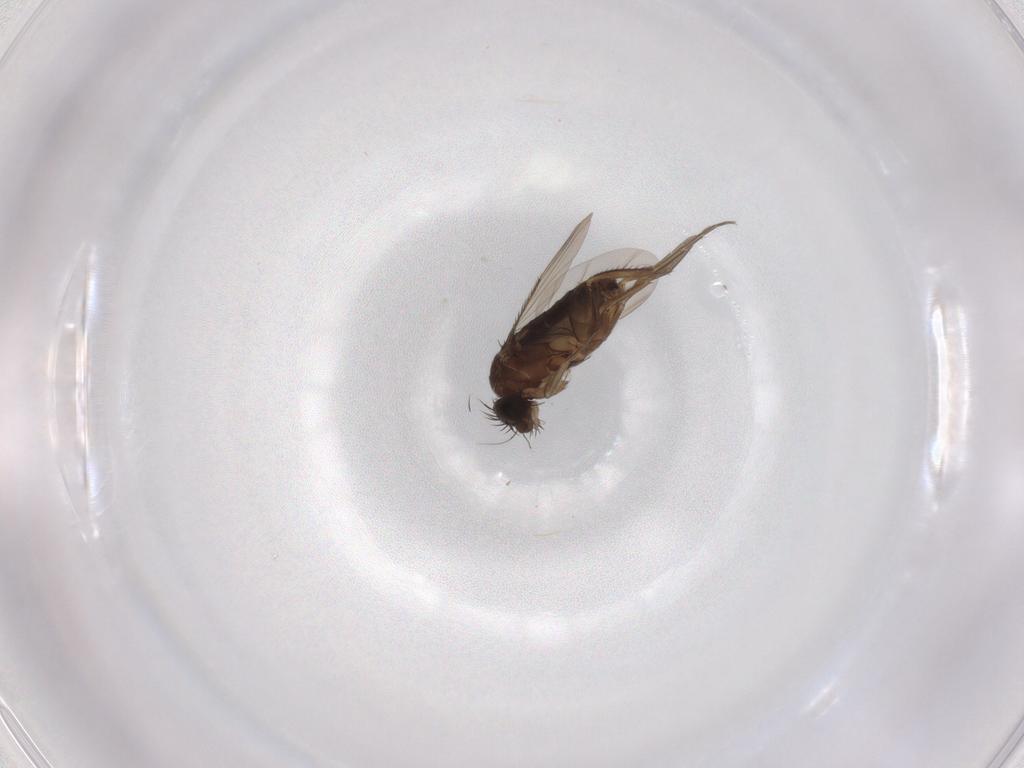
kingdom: Animalia
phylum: Arthropoda
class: Insecta
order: Diptera
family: Phoridae
